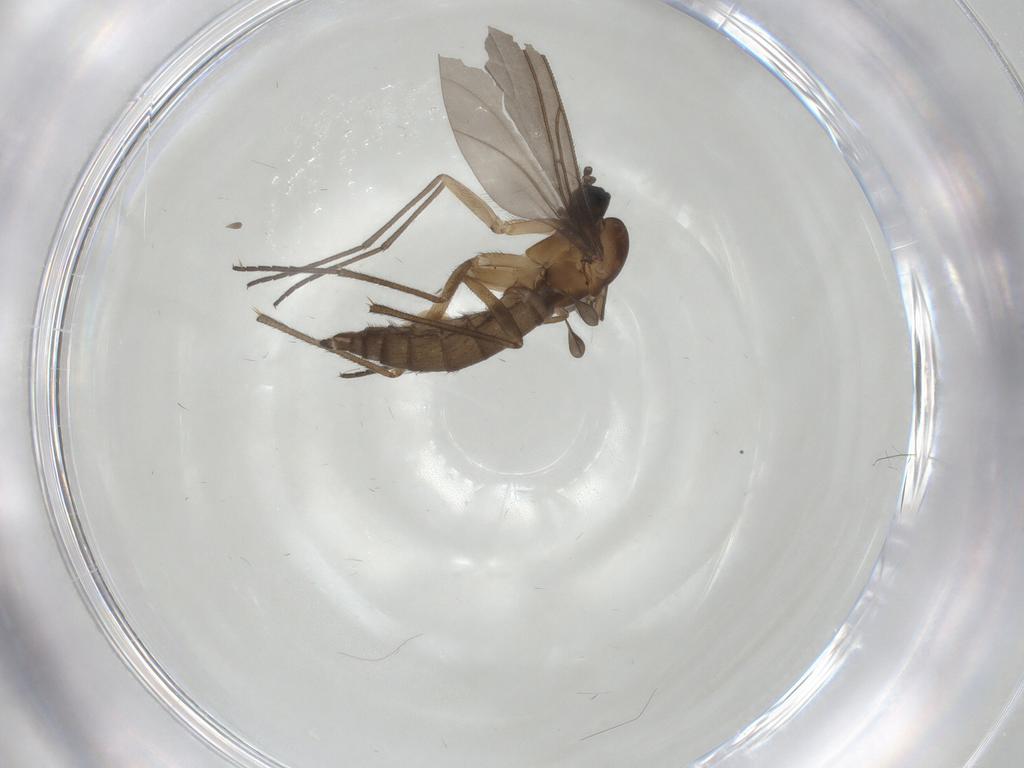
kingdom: Animalia
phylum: Arthropoda
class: Insecta
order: Diptera
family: Sciaridae
